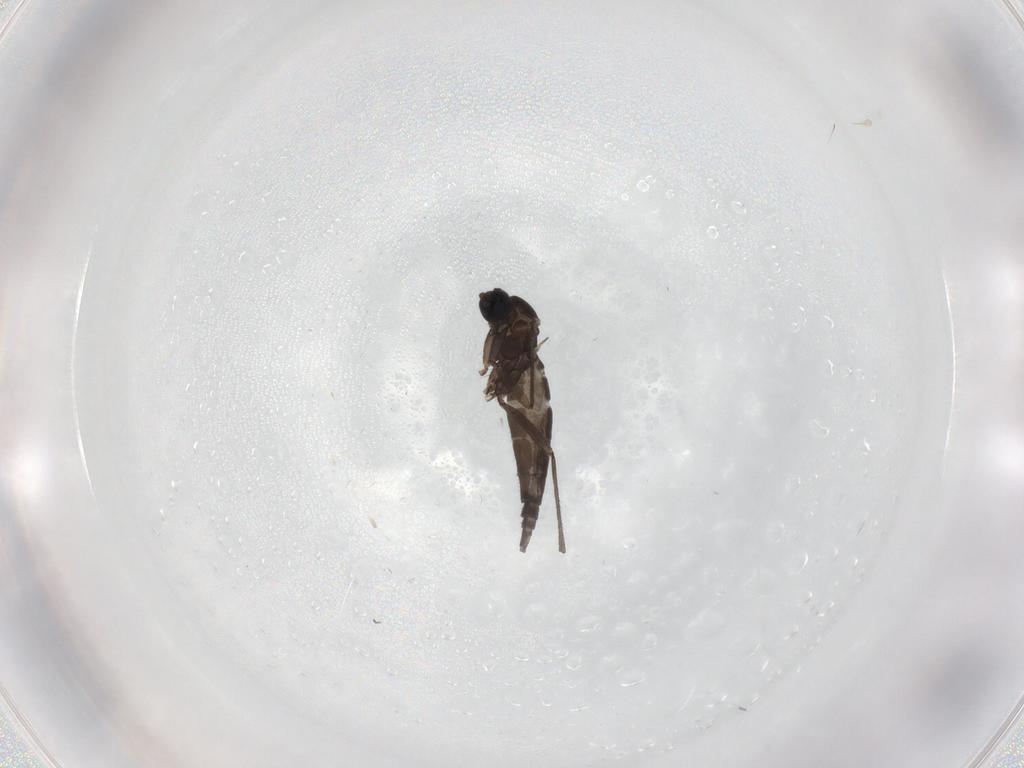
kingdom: Animalia
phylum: Arthropoda
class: Insecta
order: Diptera
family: Sciaridae
